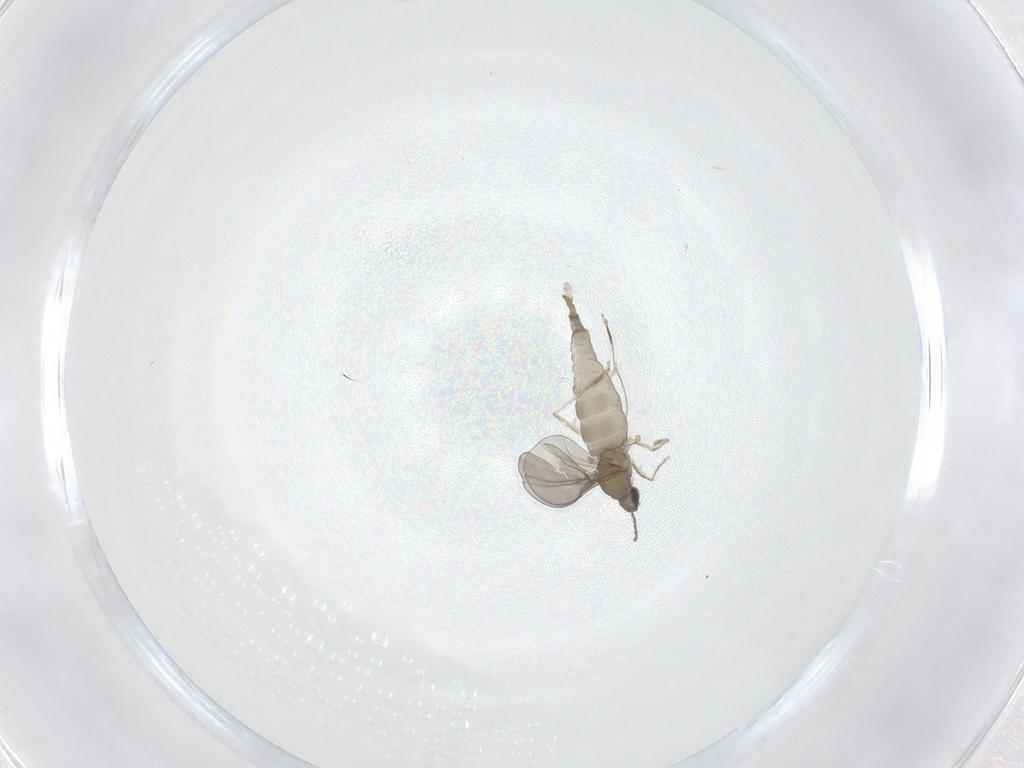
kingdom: Animalia
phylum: Arthropoda
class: Insecta
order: Diptera
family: Cecidomyiidae
